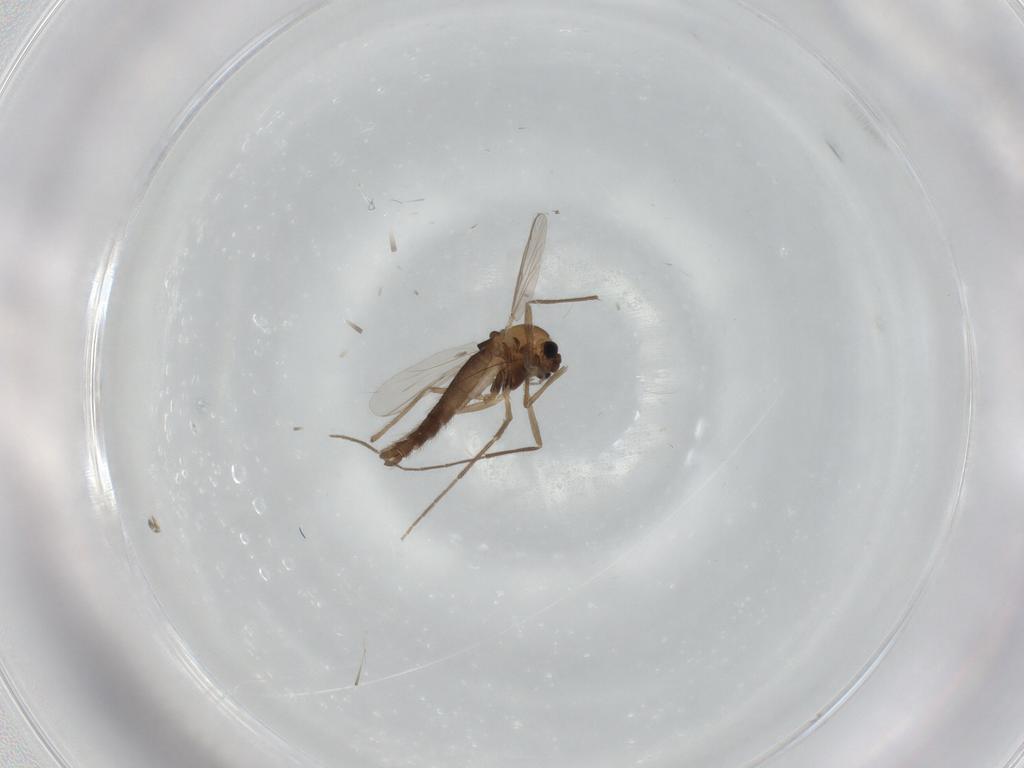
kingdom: Animalia
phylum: Arthropoda
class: Insecta
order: Diptera
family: Chironomidae
